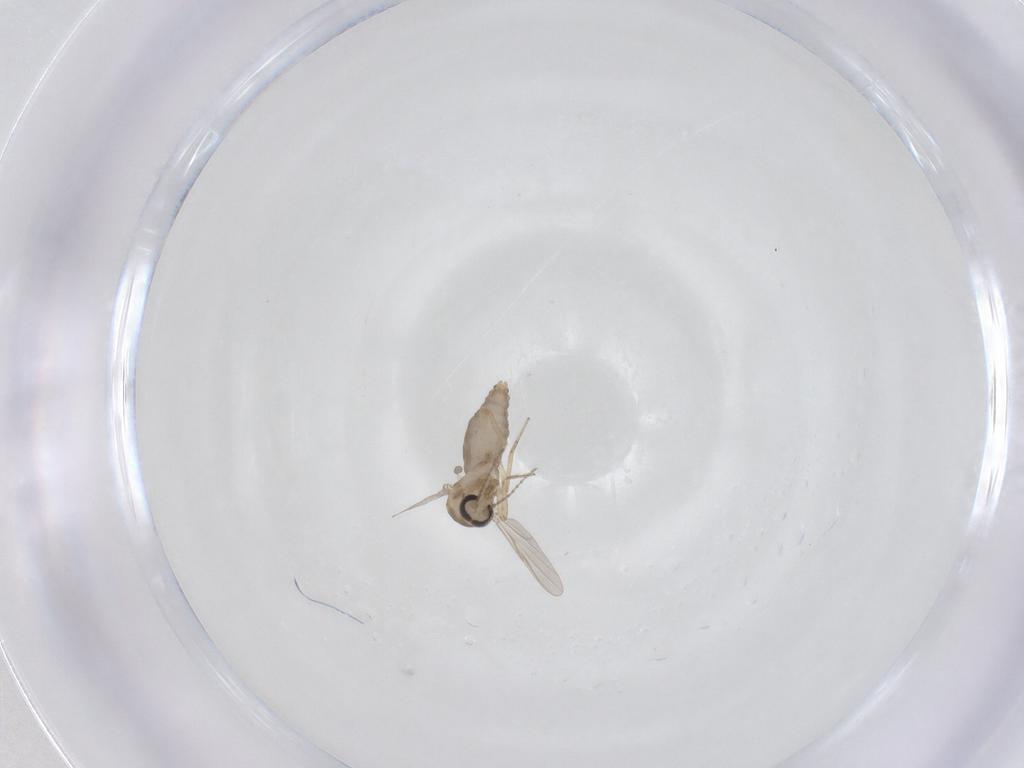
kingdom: Animalia
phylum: Arthropoda
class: Insecta
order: Diptera
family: Ceratopogonidae
